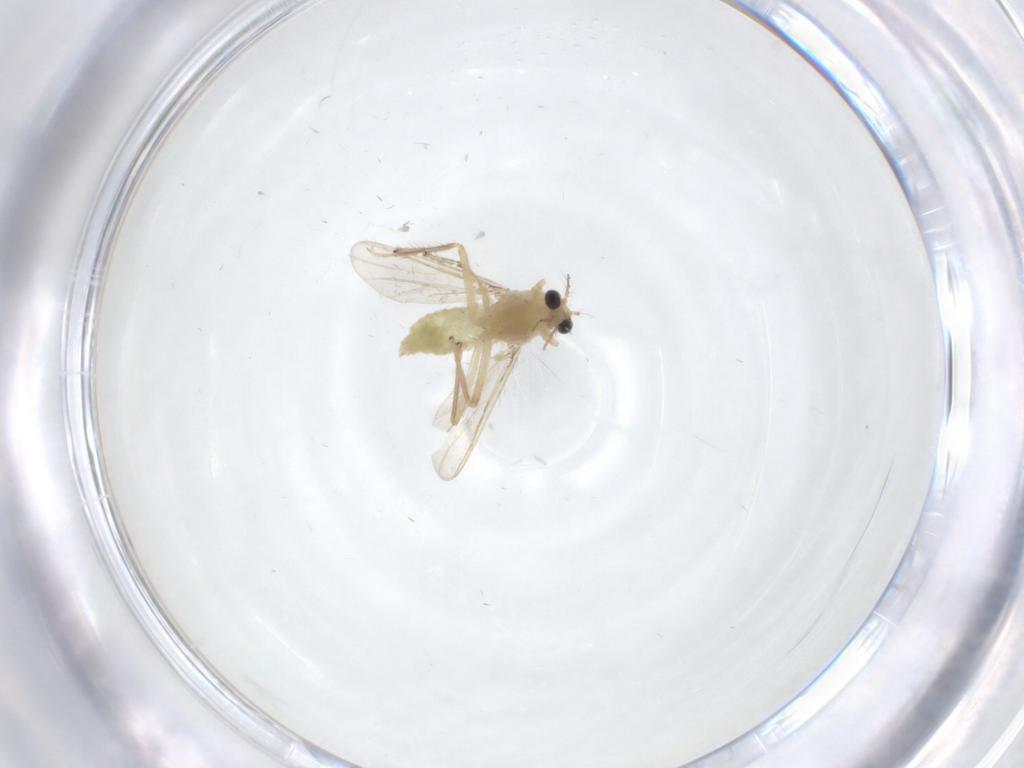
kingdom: Animalia
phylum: Arthropoda
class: Insecta
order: Diptera
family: Chironomidae
